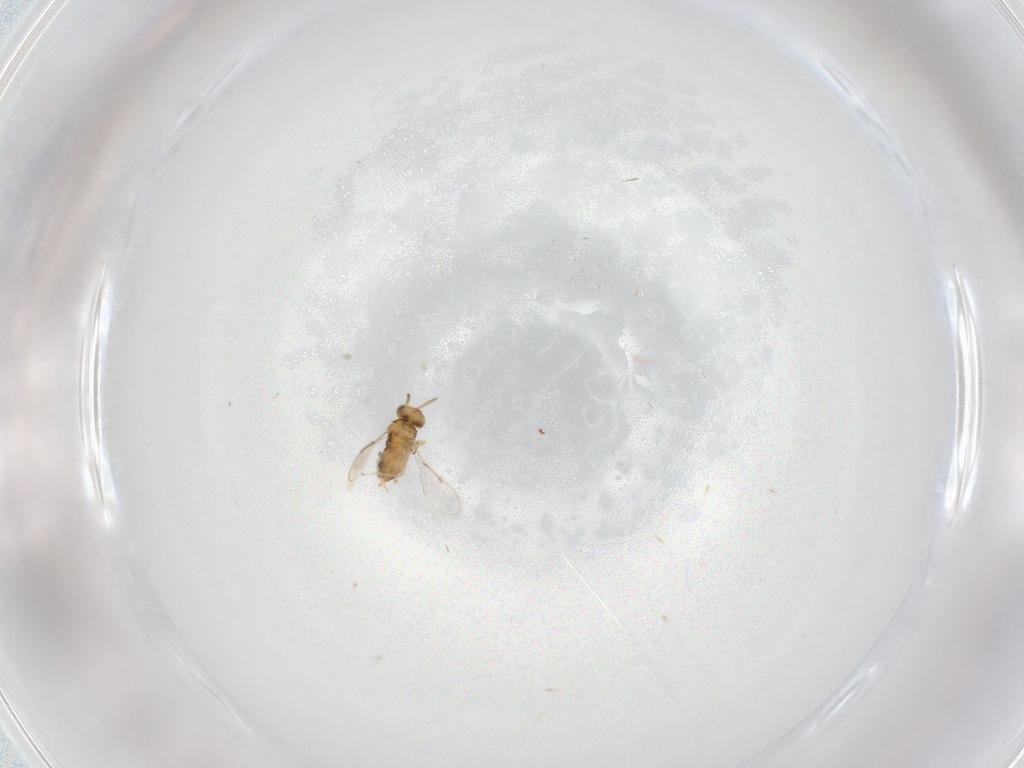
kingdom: Animalia
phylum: Arthropoda
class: Insecta
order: Hymenoptera
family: Aphelinidae
